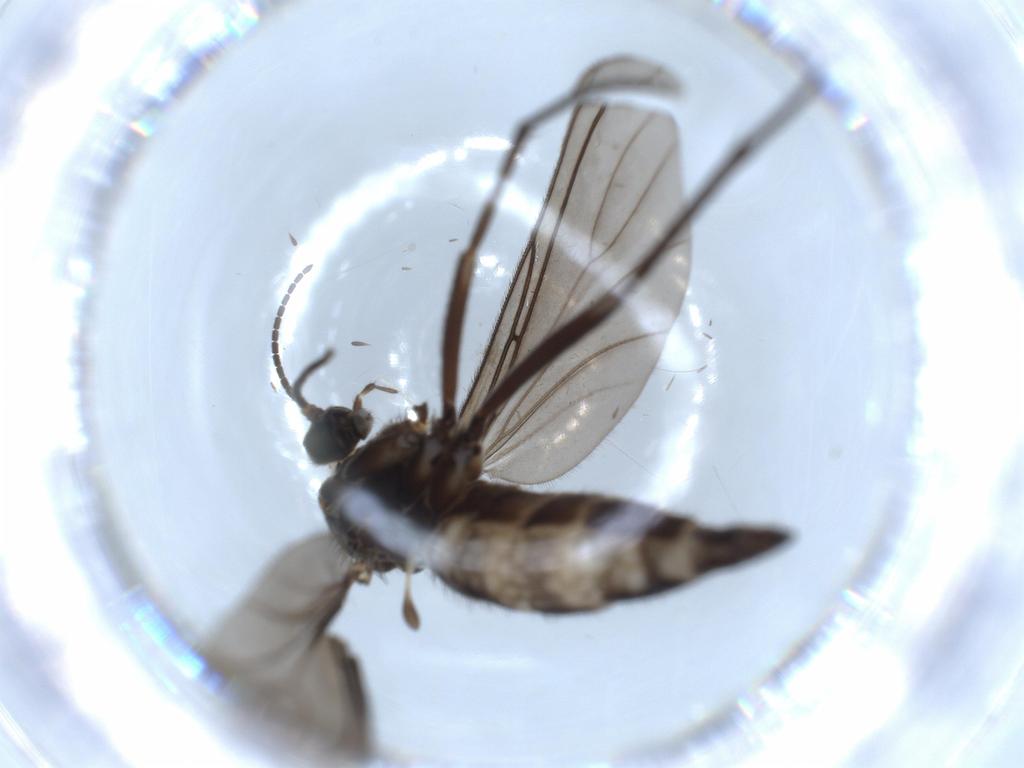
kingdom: Animalia
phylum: Arthropoda
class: Insecta
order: Diptera
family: Sciaridae
